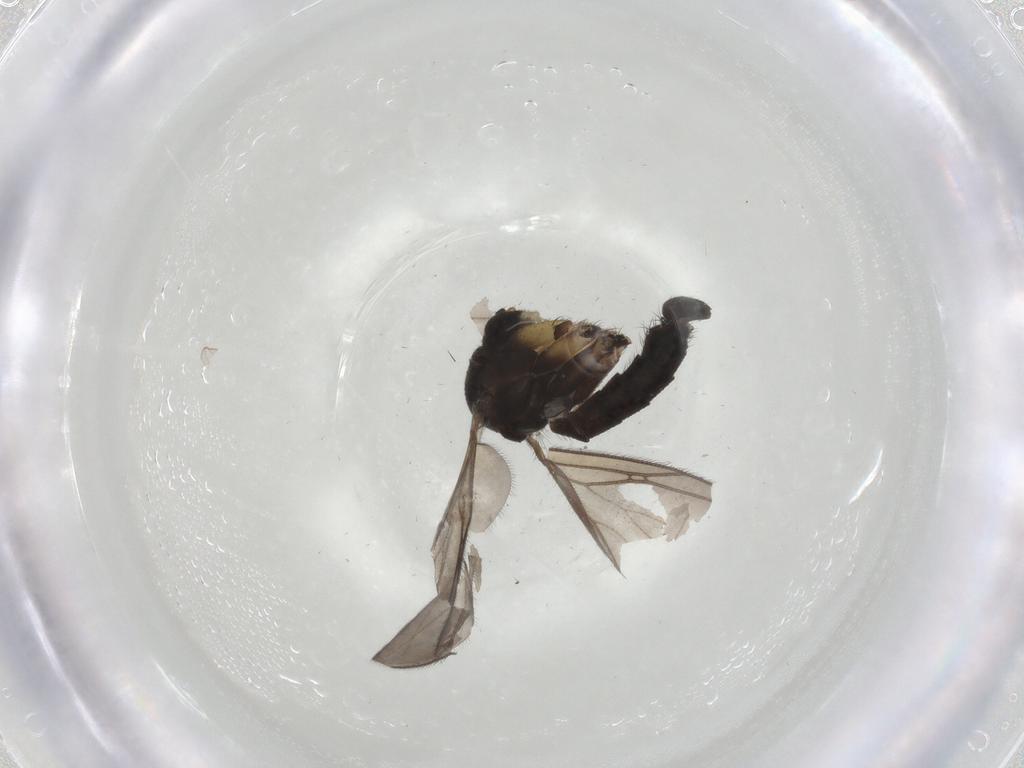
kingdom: Animalia
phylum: Arthropoda
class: Insecta
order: Diptera
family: Mycetophilidae
